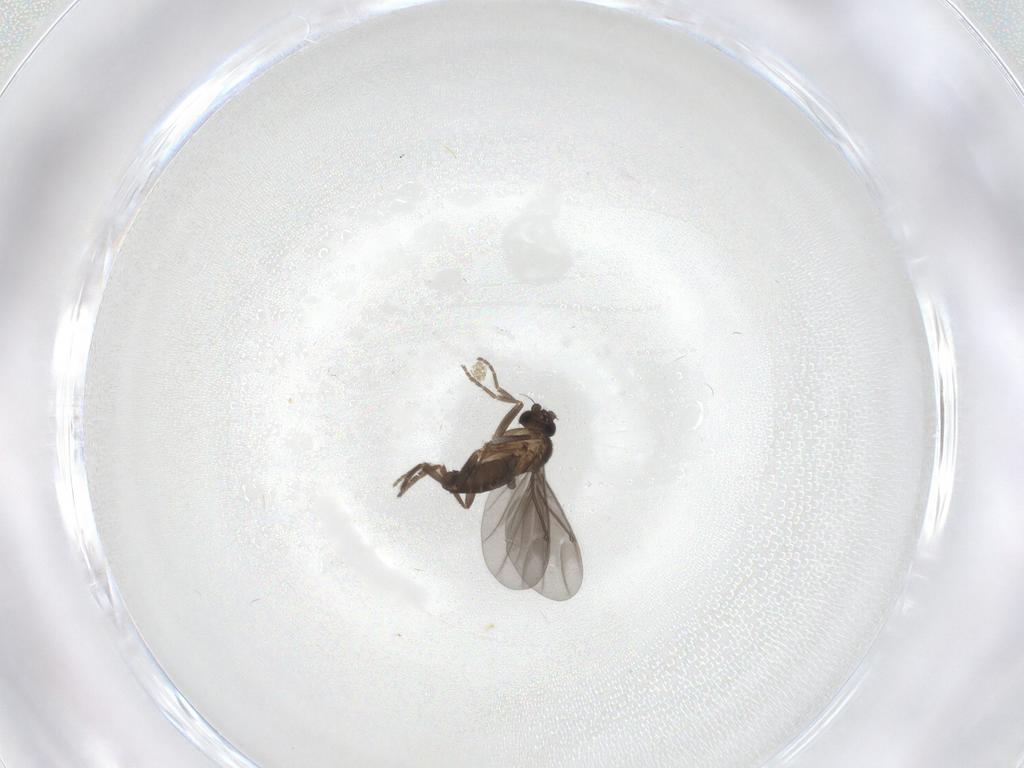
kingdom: Animalia
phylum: Arthropoda
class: Insecta
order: Diptera
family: Phoridae
